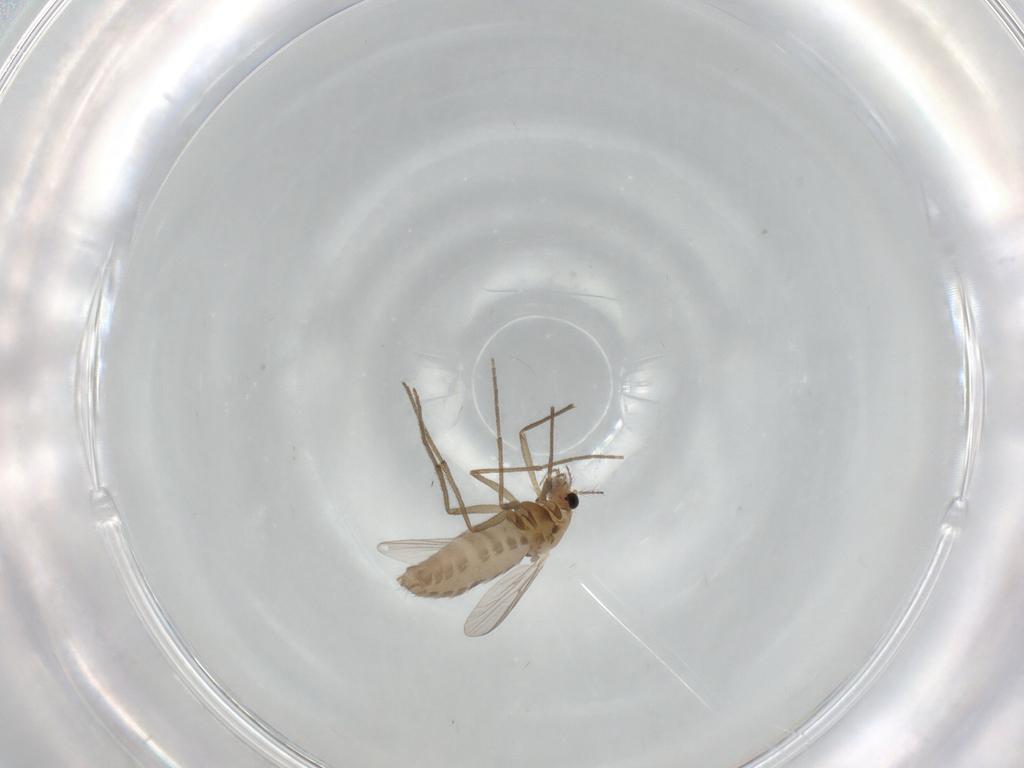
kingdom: Animalia
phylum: Arthropoda
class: Insecta
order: Diptera
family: Chironomidae
